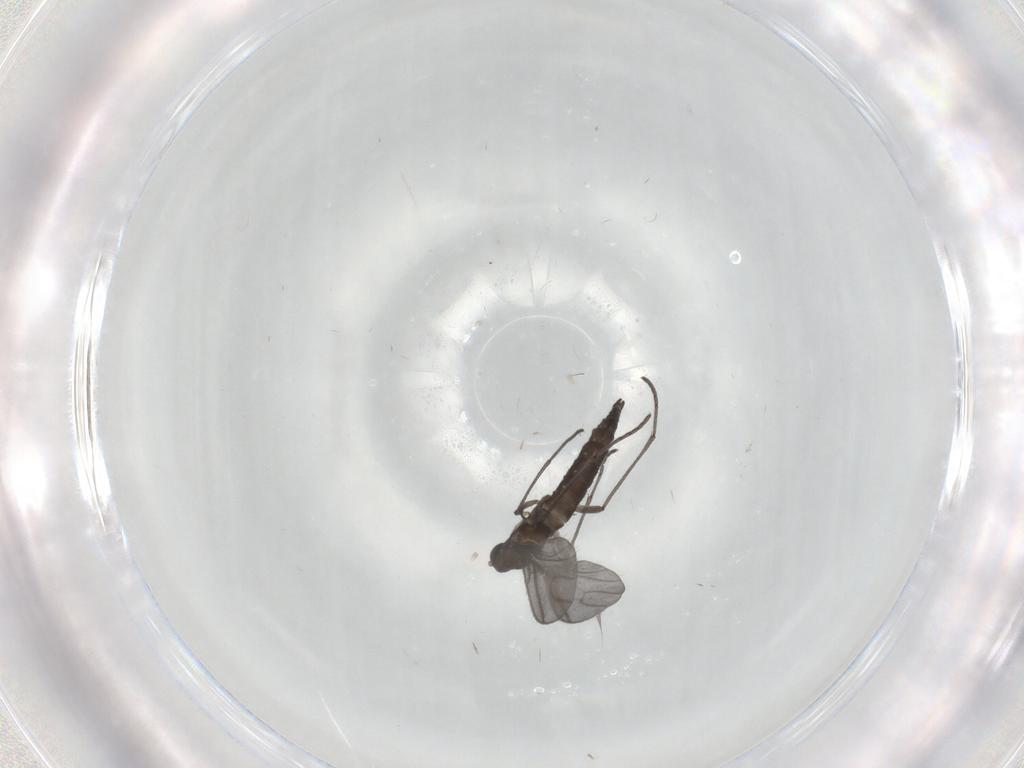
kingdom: Animalia
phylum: Arthropoda
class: Insecta
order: Diptera
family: Sciaridae
